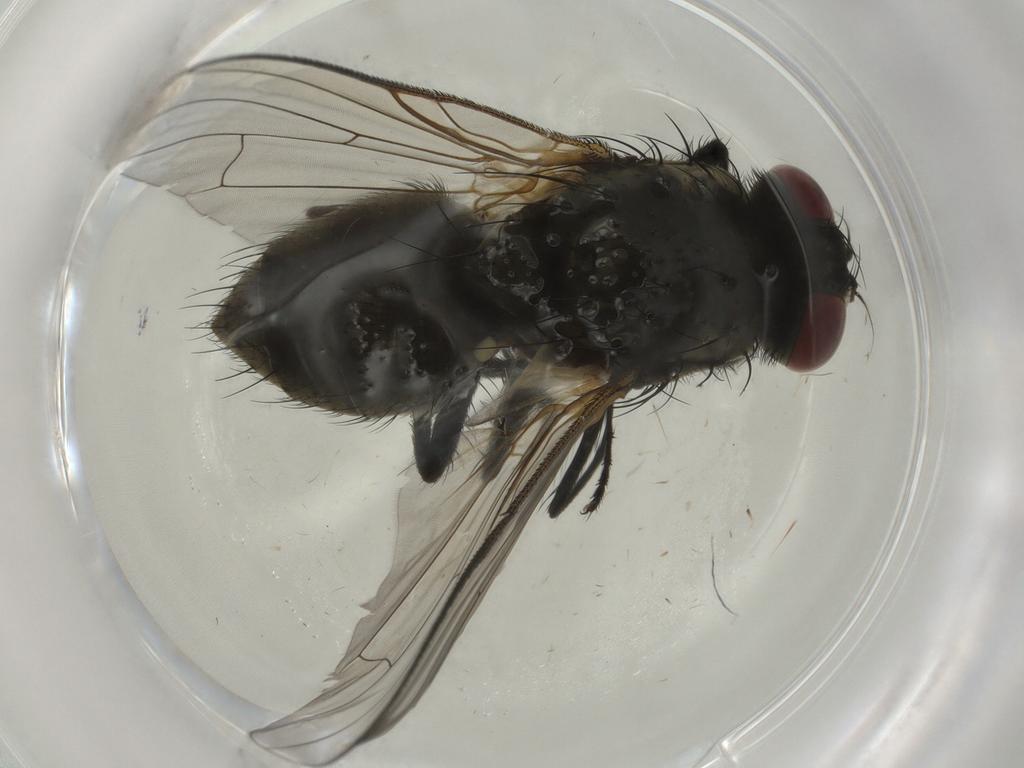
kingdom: Animalia
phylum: Arthropoda
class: Insecta
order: Diptera
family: Muscidae
